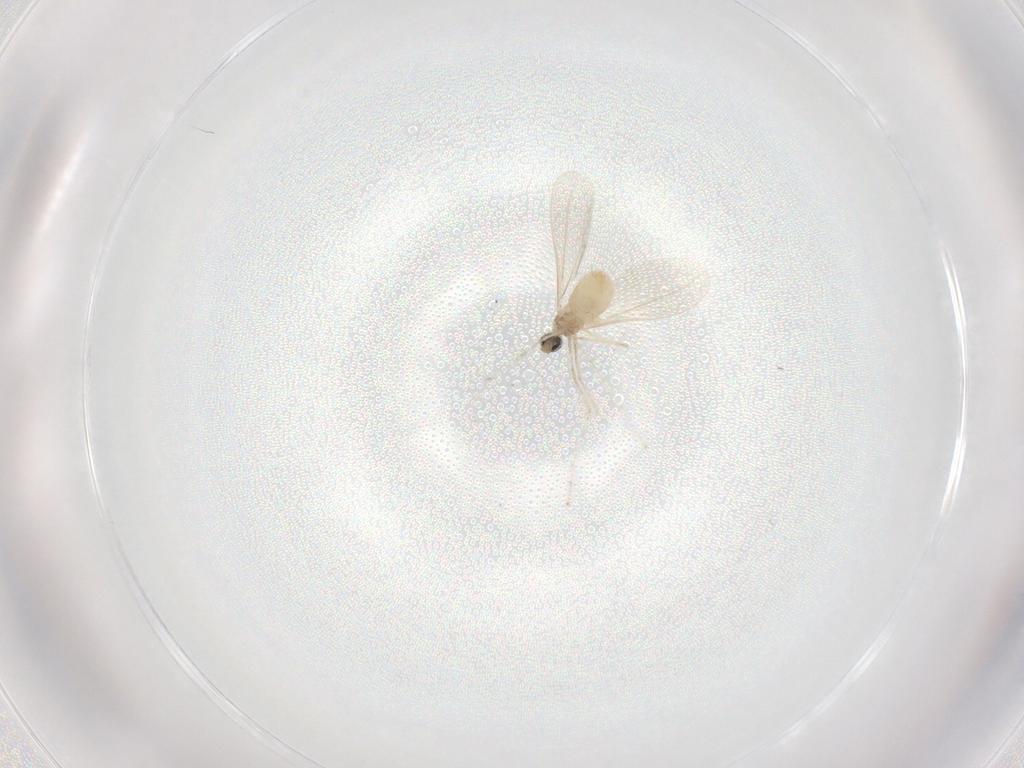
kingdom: Animalia
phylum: Arthropoda
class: Insecta
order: Diptera
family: Cecidomyiidae
